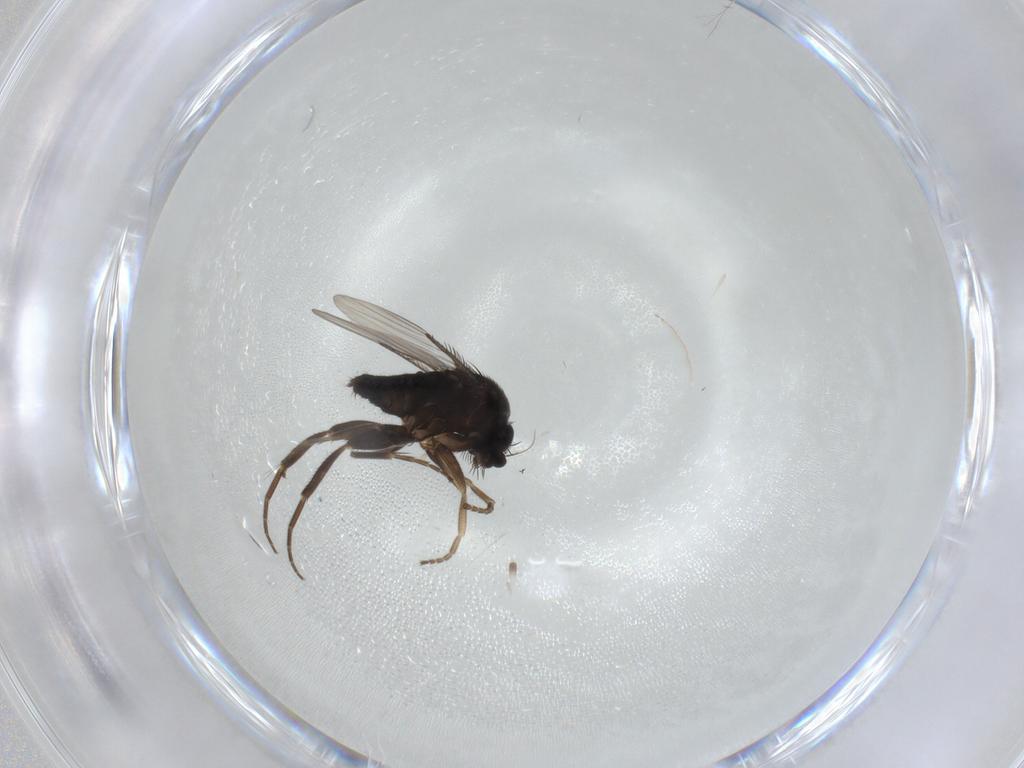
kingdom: Animalia
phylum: Arthropoda
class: Insecta
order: Diptera
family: Phoridae
